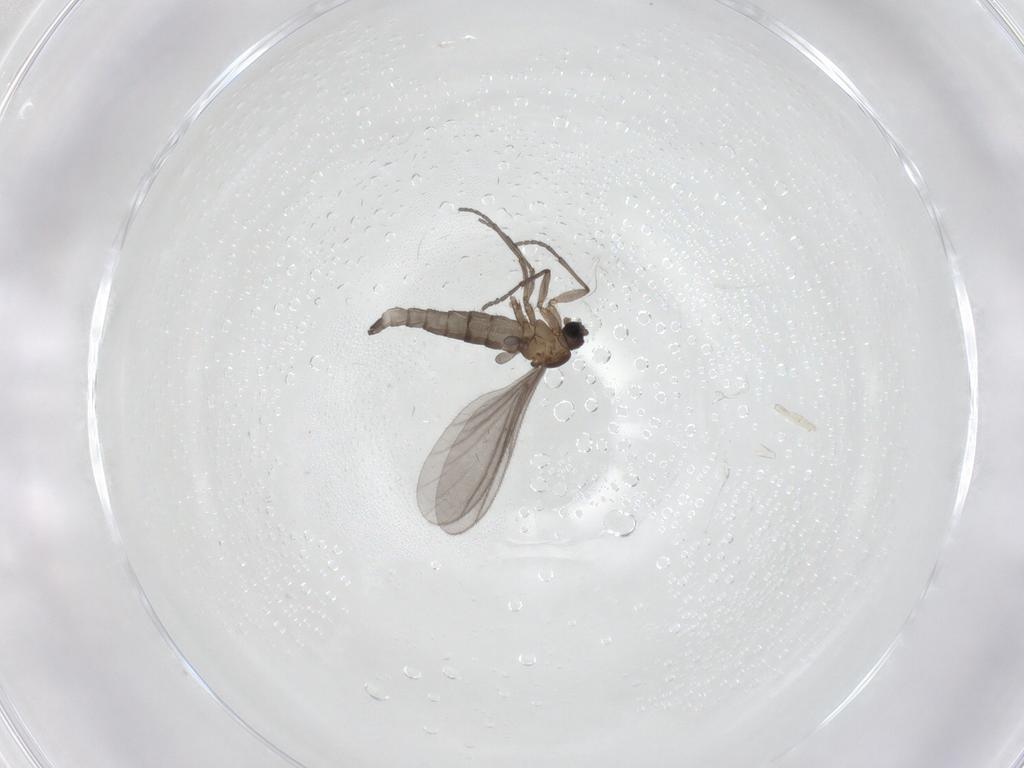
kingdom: Animalia
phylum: Arthropoda
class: Insecta
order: Diptera
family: Sciaridae
